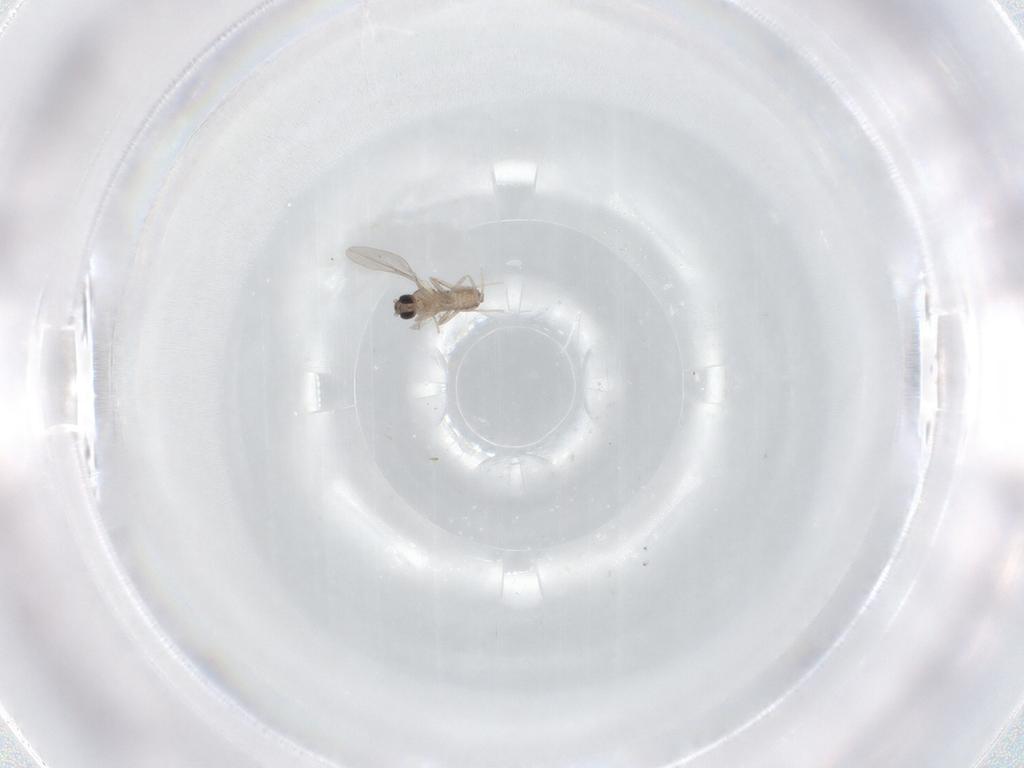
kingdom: Animalia
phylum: Arthropoda
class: Insecta
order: Diptera
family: Cecidomyiidae
